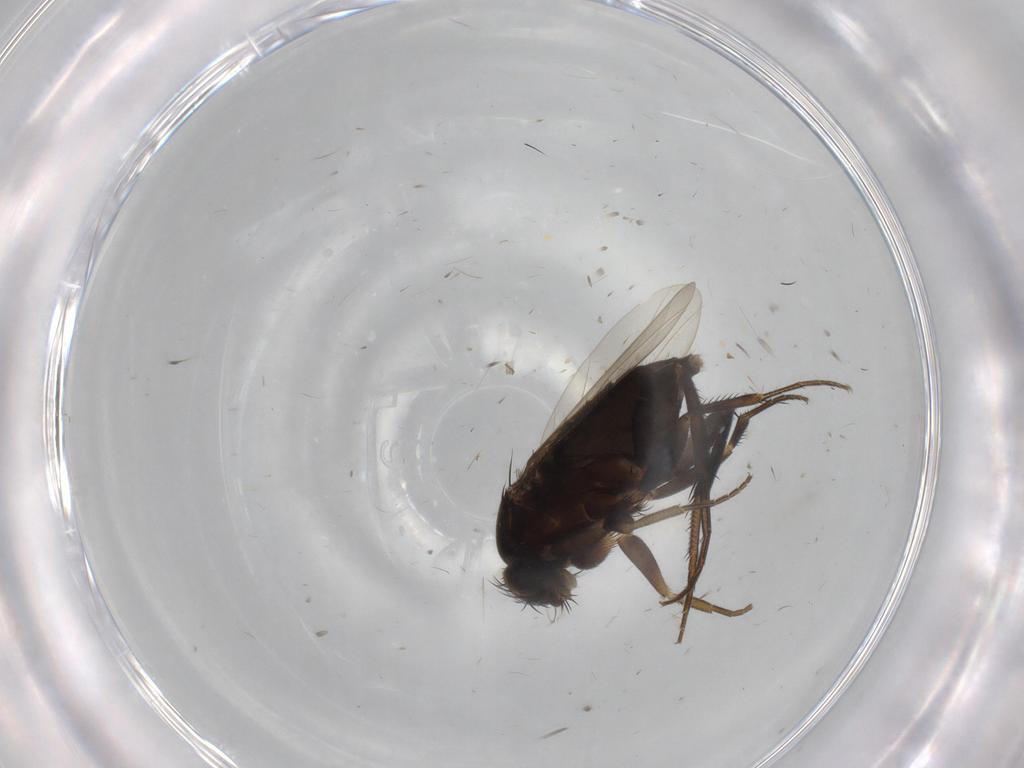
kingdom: Animalia
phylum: Arthropoda
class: Insecta
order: Diptera
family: Phoridae
